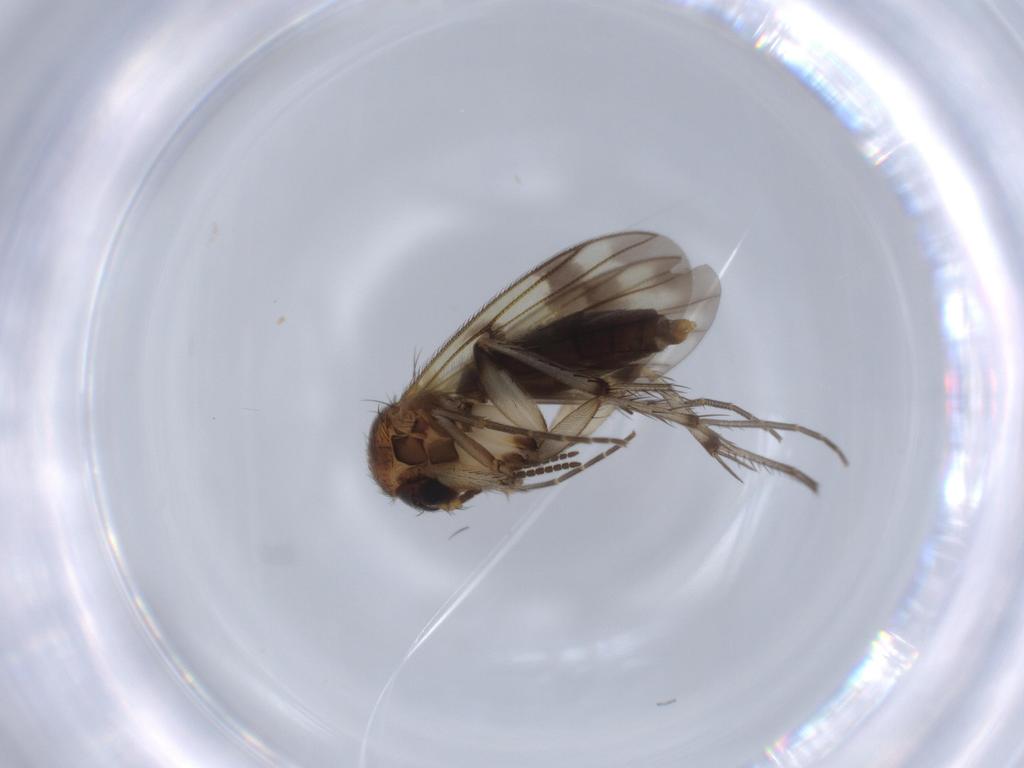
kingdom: Animalia
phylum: Arthropoda
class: Insecta
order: Diptera
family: Mycetophilidae
